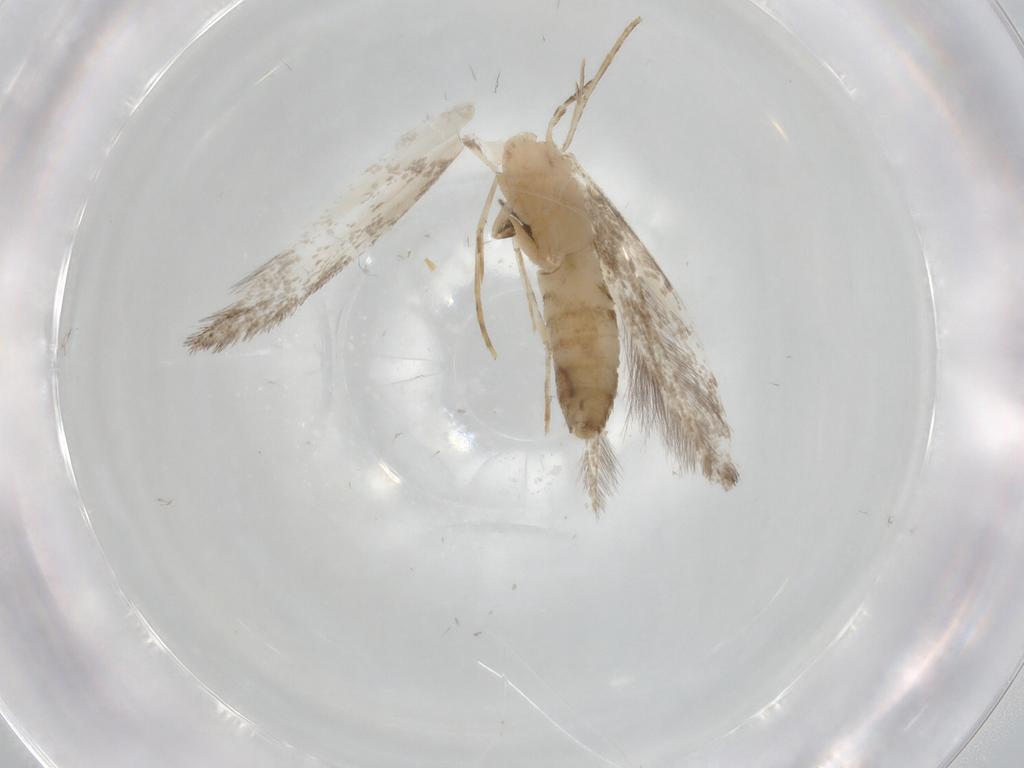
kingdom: Animalia
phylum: Arthropoda
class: Insecta
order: Lepidoptera
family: Tineidae
